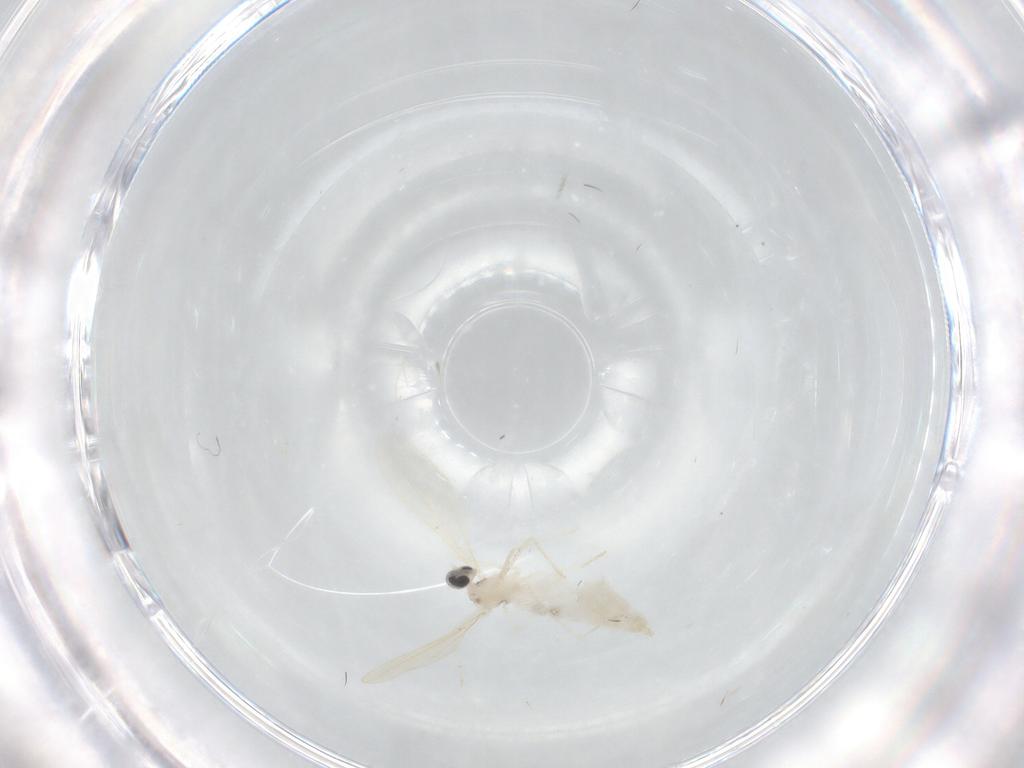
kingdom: Animalia
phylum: Arthropoda
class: Insecta
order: Diptera
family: Cecidomyiidae
